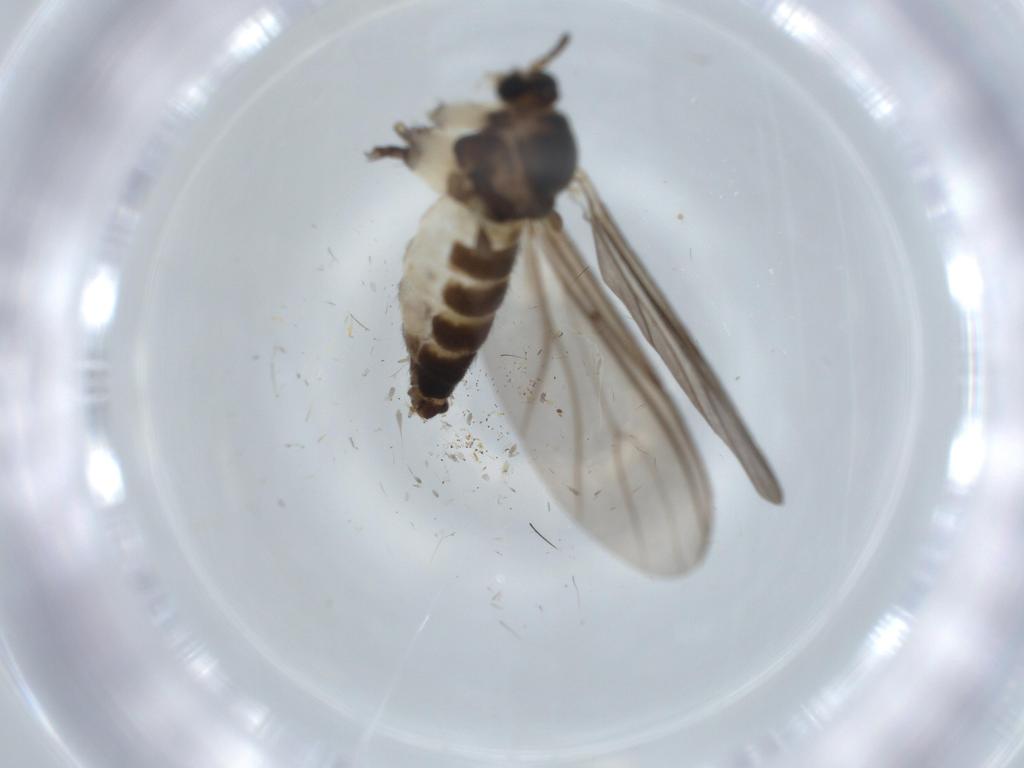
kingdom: Animalia
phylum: Arthropoda
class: Insecta
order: Diptera
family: Sciaridae
